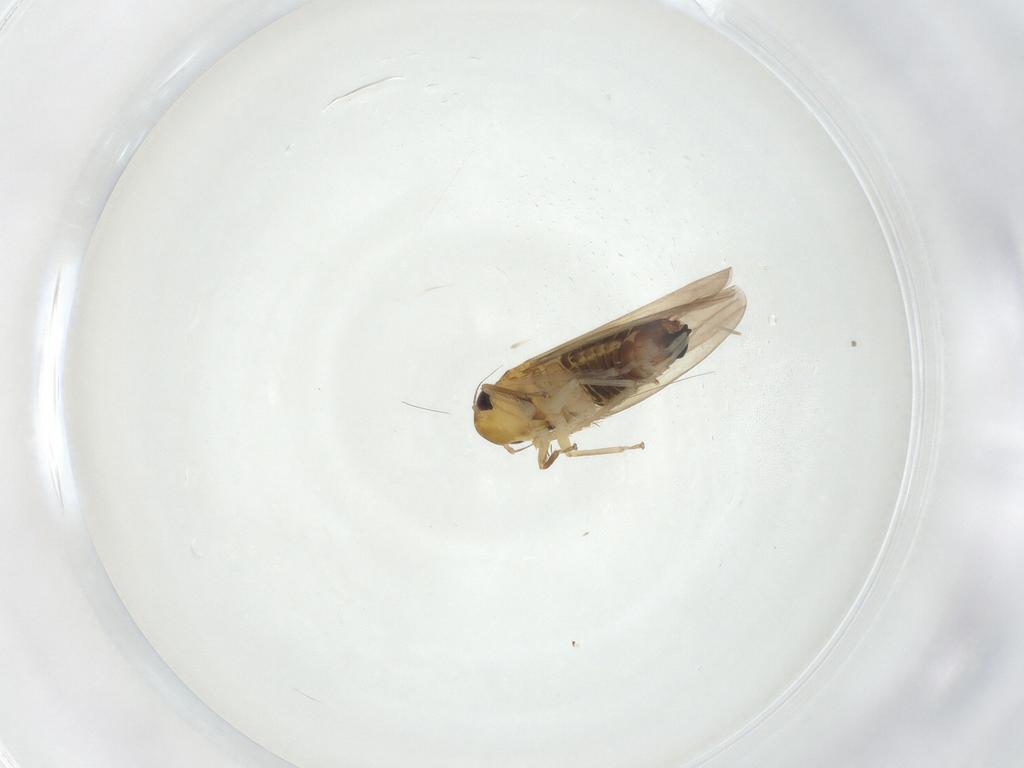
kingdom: Animalia
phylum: Arthropoda
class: Insecta
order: Hemiptera
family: Cicadellidae
